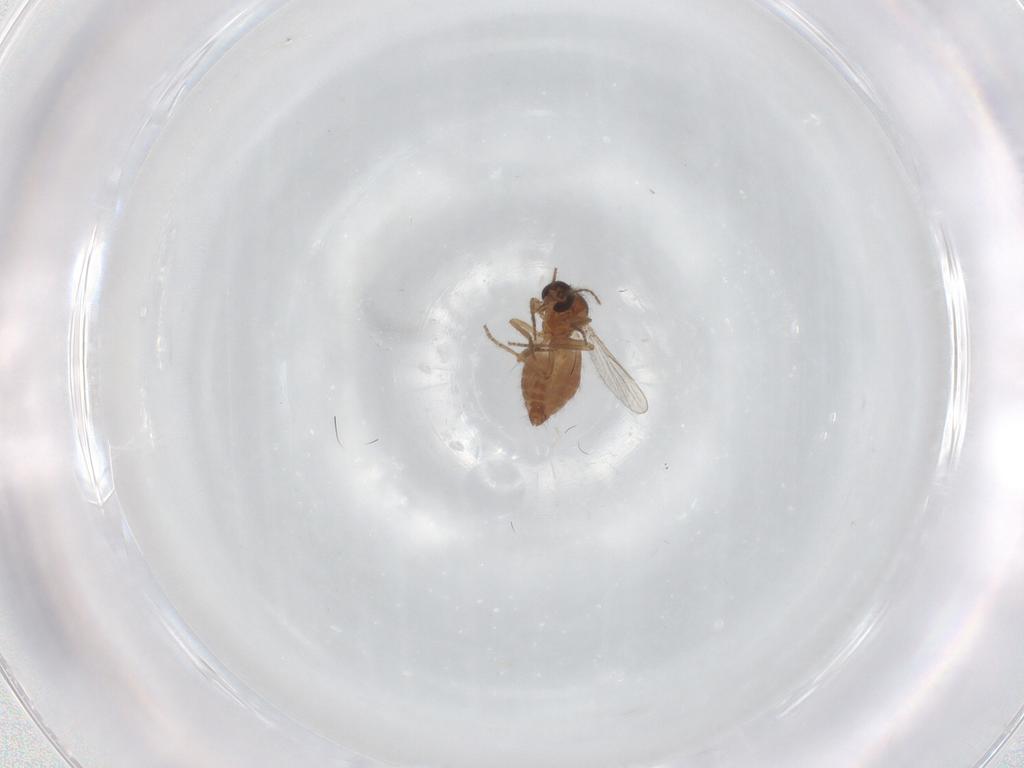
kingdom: Animalia
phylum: Arthropoda
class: Insecta
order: Diptera
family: Ceratopogonidae
